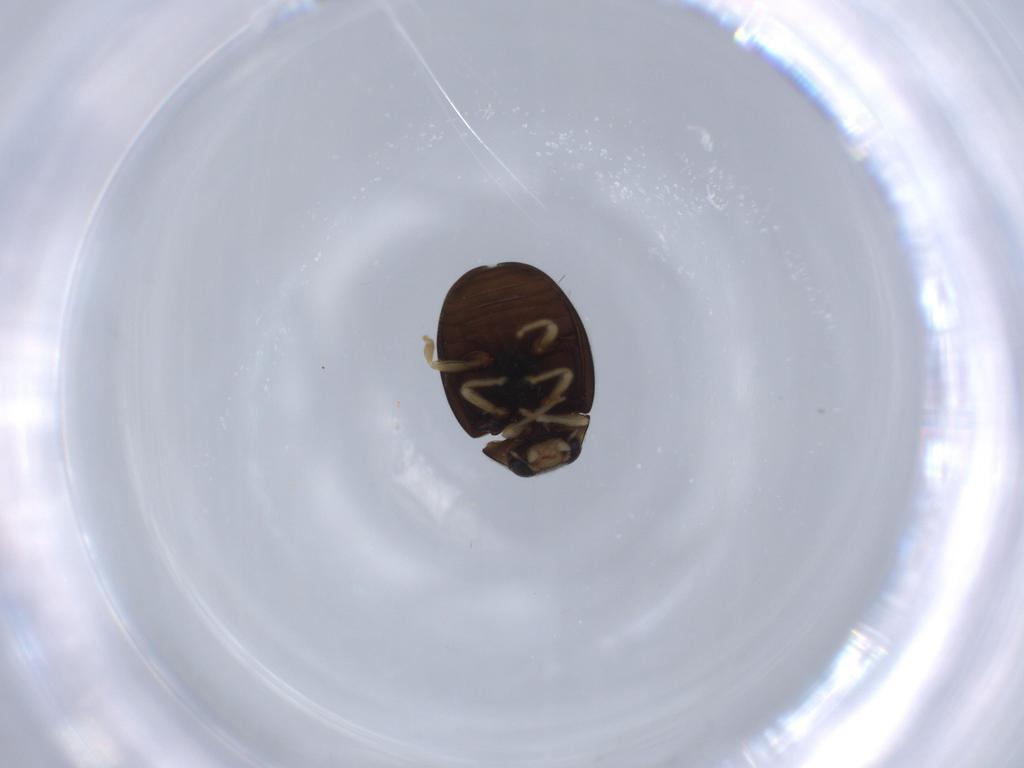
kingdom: Animalia
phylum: Arthropoda
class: Insecta
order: Coleoptera
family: Coccinellidae
